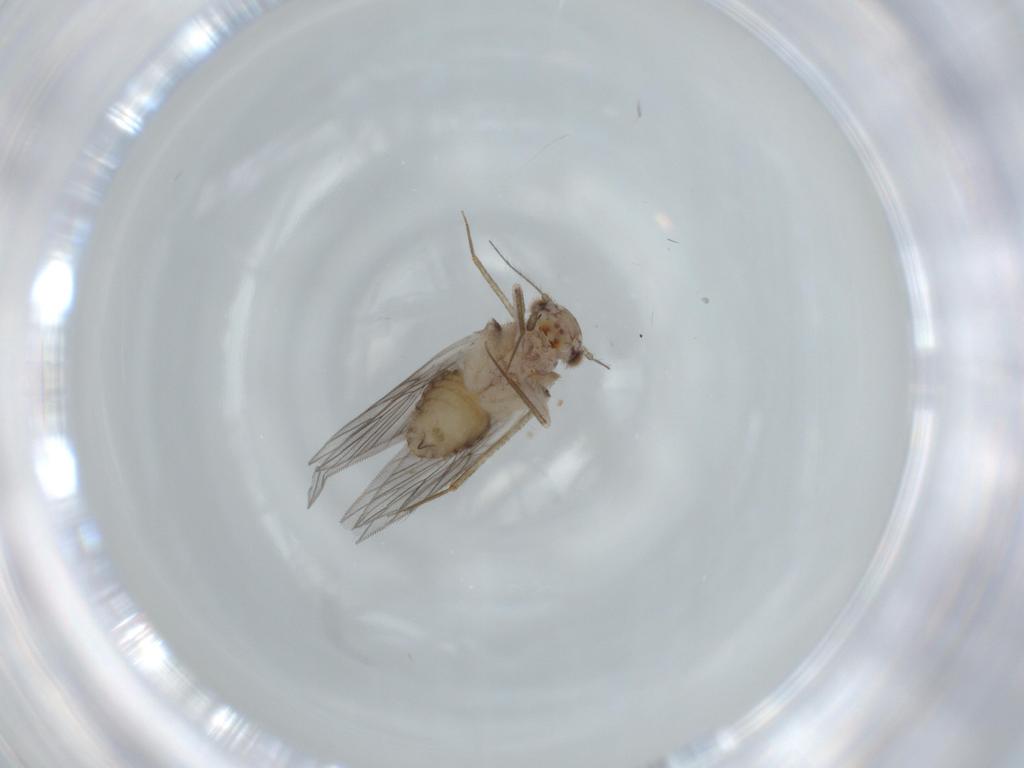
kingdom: Animalia
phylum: Arthropoda
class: Insecta
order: Psocodea
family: Lepidopsocidae
